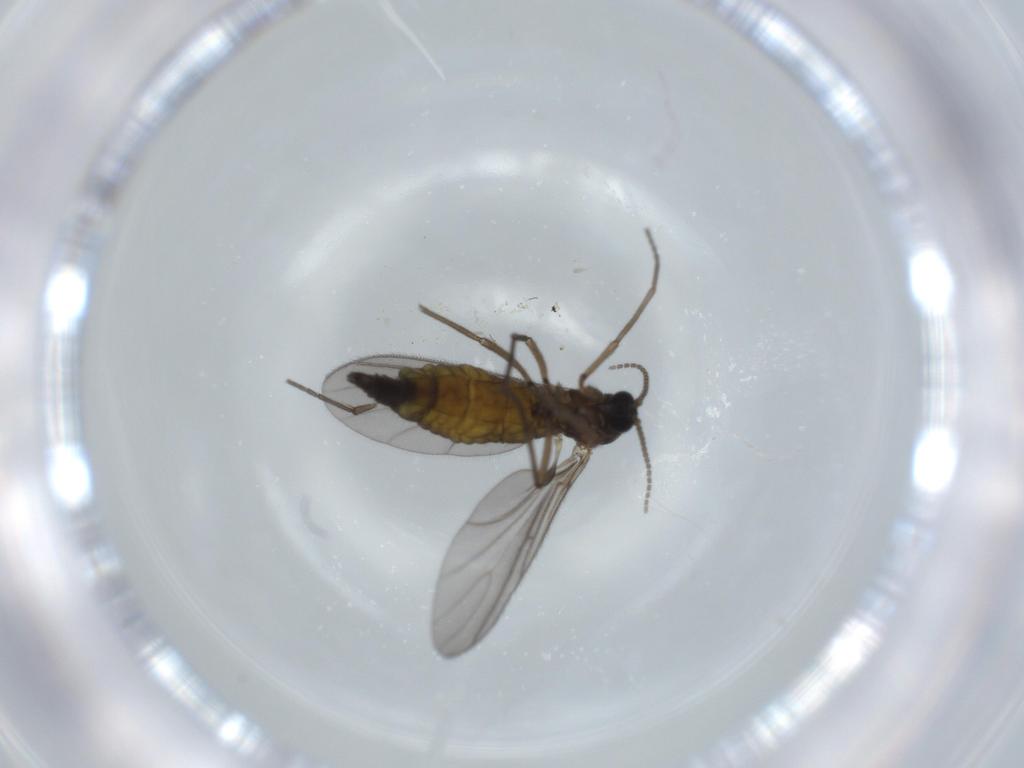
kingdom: Animalia
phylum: Arthropoda
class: Insecta
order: Diptera
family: Sciaridae
